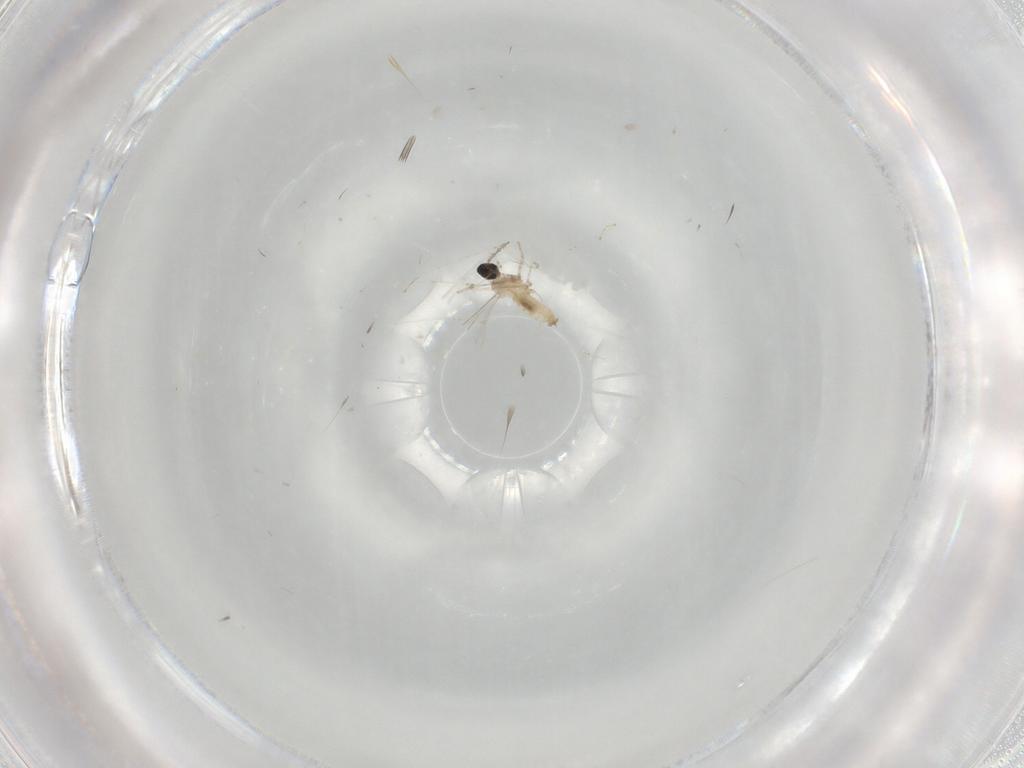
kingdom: Animalia
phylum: Arthropoda
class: Insecta
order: Diptera
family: Cecidomyiidae
